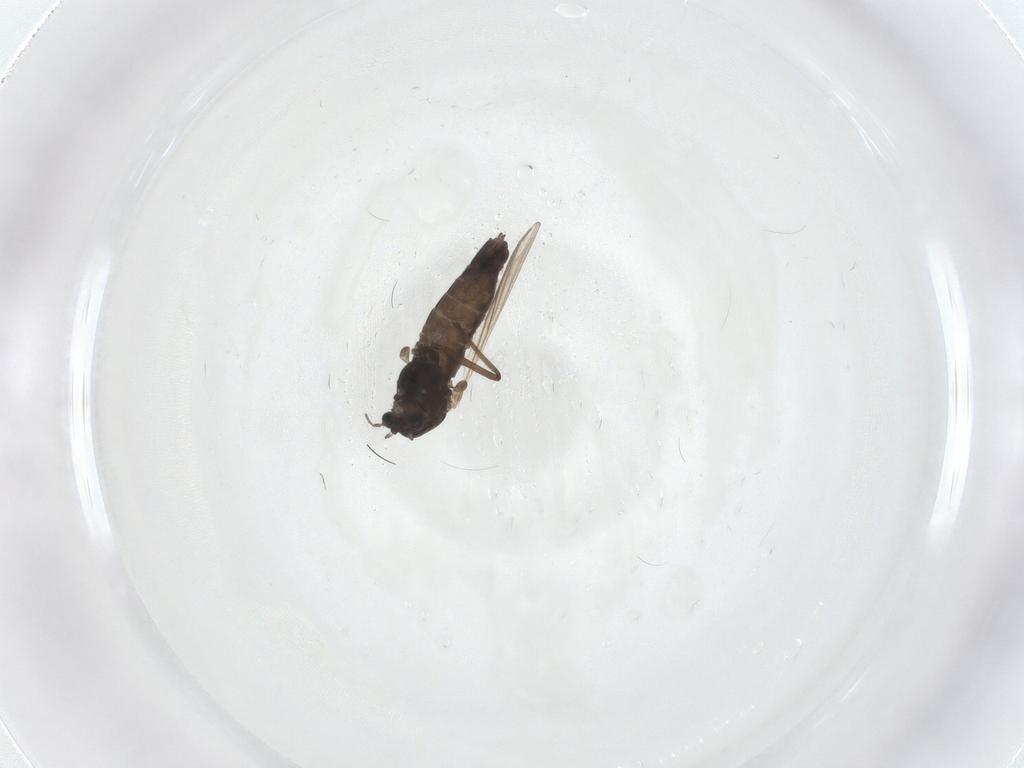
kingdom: Animalia
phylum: Arthropoda
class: Insecta
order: Diptera
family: Chironomidae
